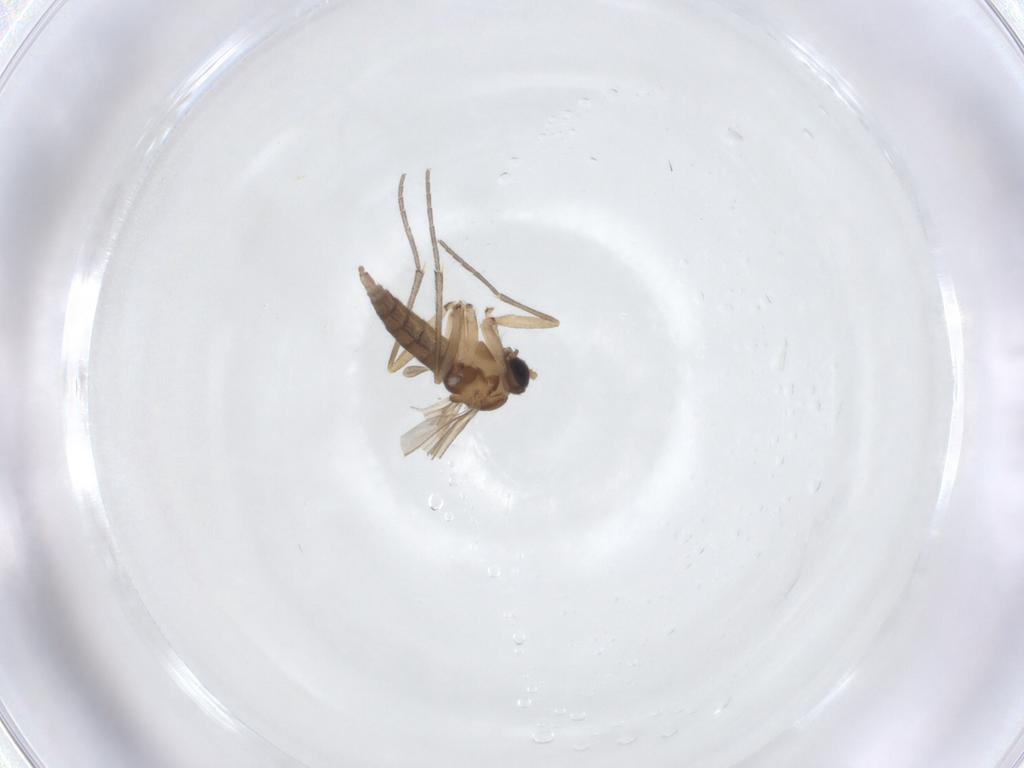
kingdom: Animalia
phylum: Arthropoda
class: Insecta
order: Diptera
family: Sciaridae
